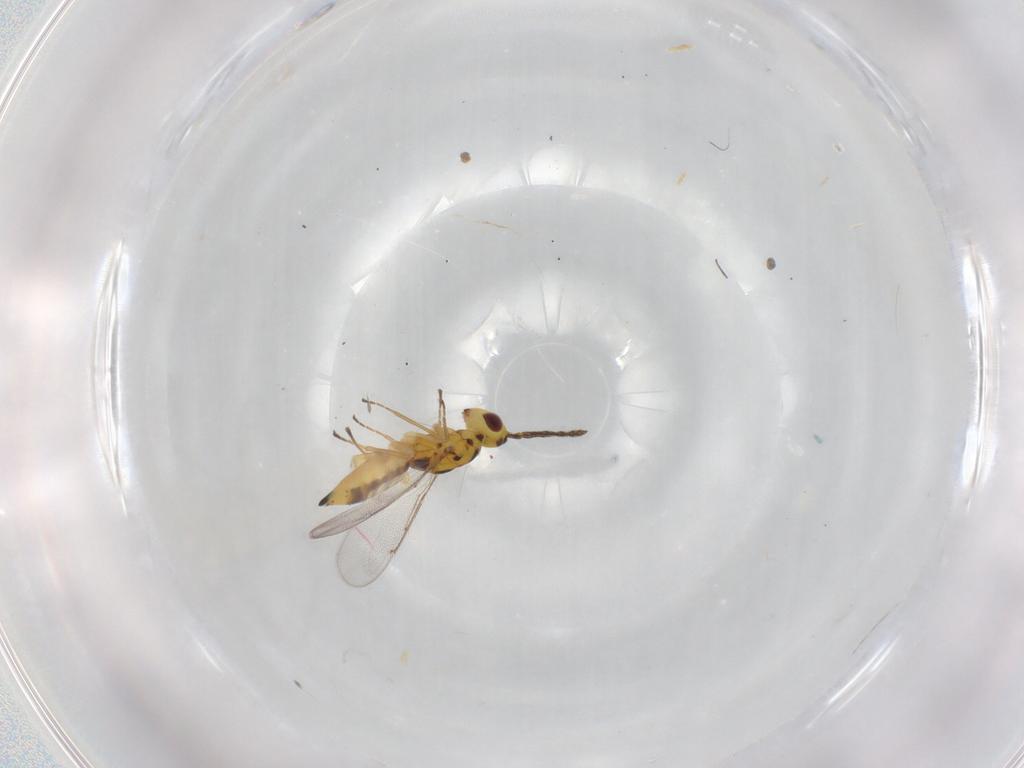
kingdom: Animalia
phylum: Arthropoda
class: Insecta
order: Hymenoptera
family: Eulophidae
